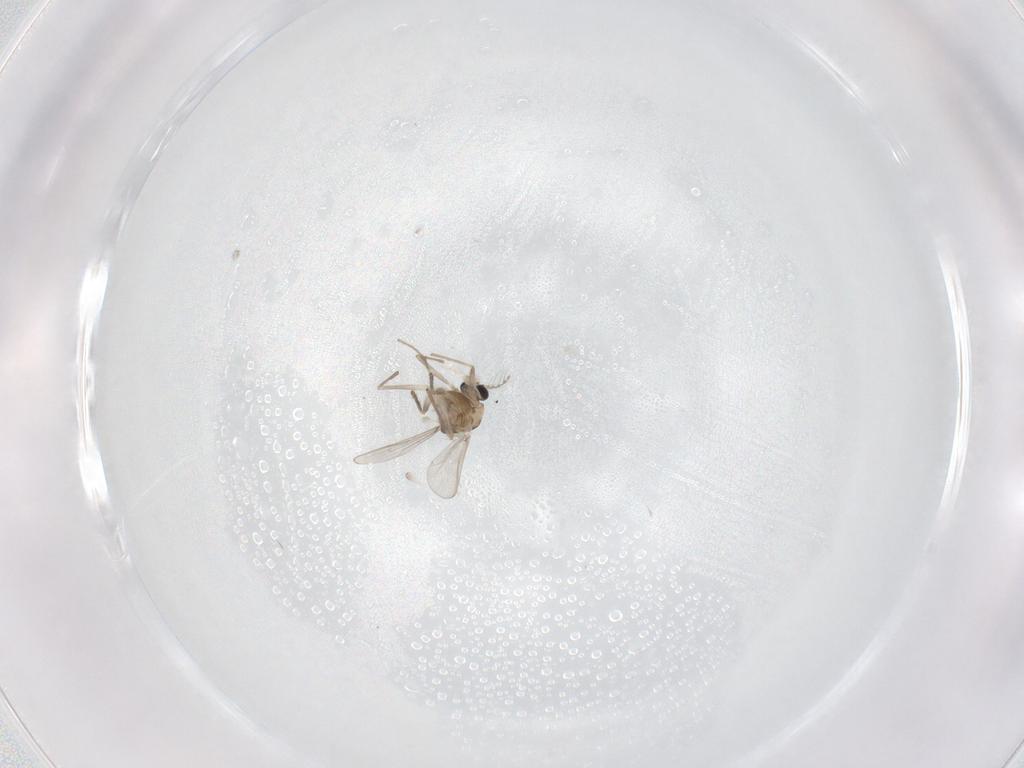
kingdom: Animalia
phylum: Arthropoda
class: Insecta
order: Diptera
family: Chironomidae
